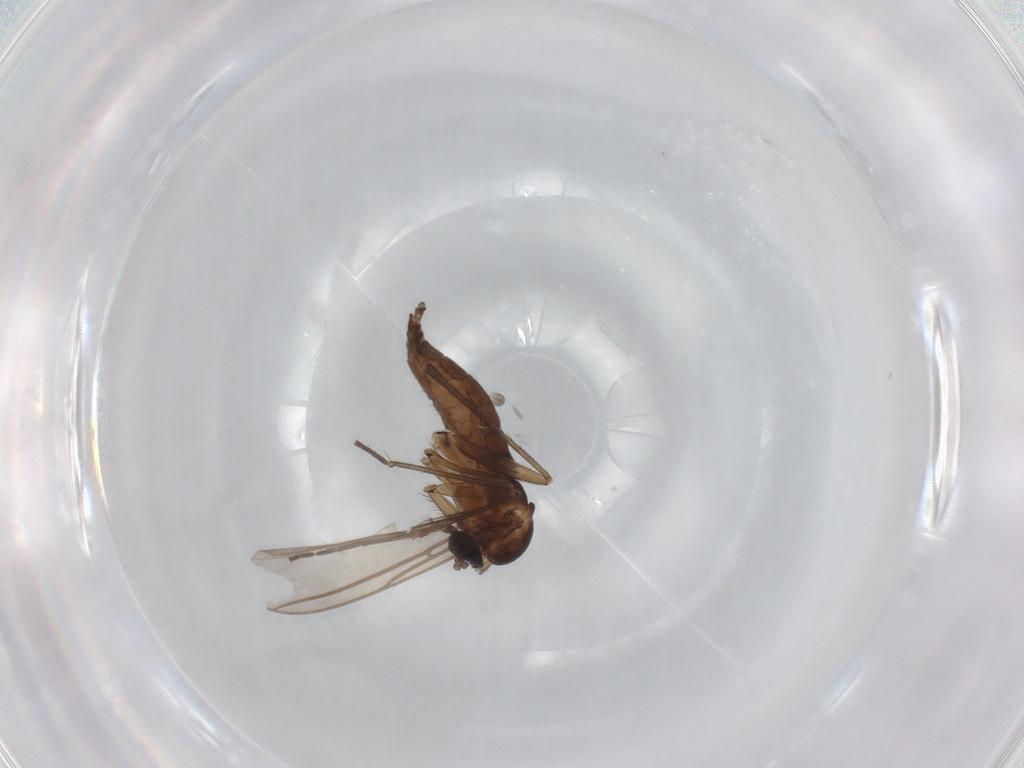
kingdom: Animalia
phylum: Arthropoda
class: Insecta
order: Diptera
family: Sciaridae
